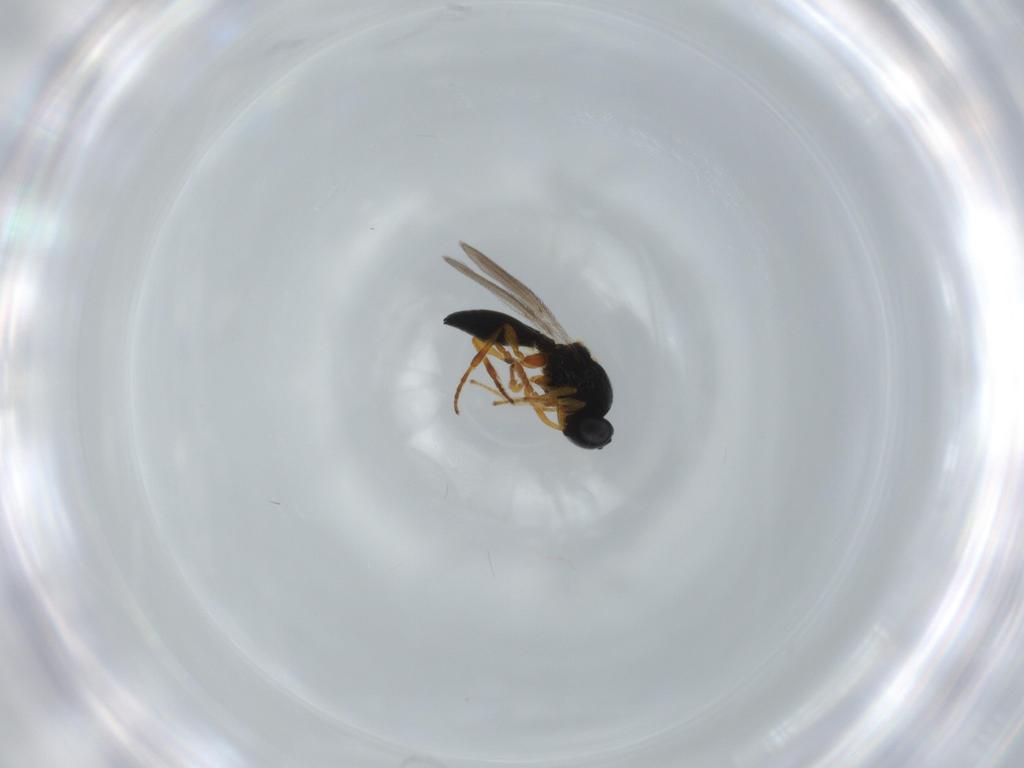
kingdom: Animalia
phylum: Arthropoda
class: Insecta
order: Hymenoptera
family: Platygastridae
